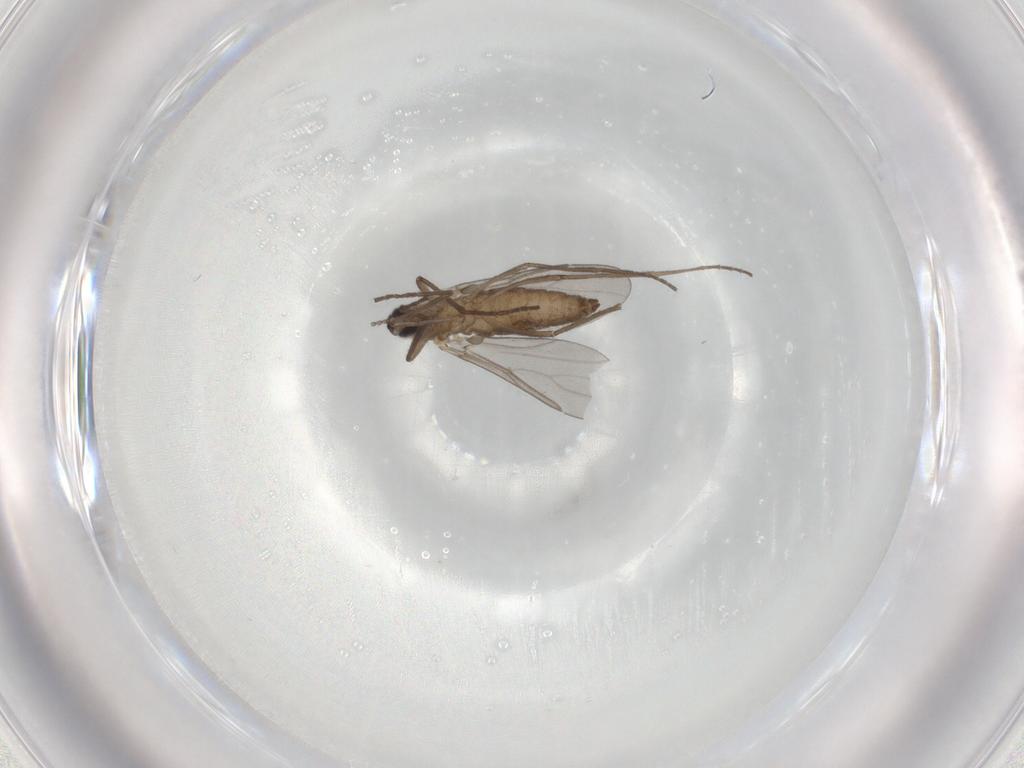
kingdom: Animalia
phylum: Arthropoda
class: Insecta
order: Diptera
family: Cecidomyiidae
